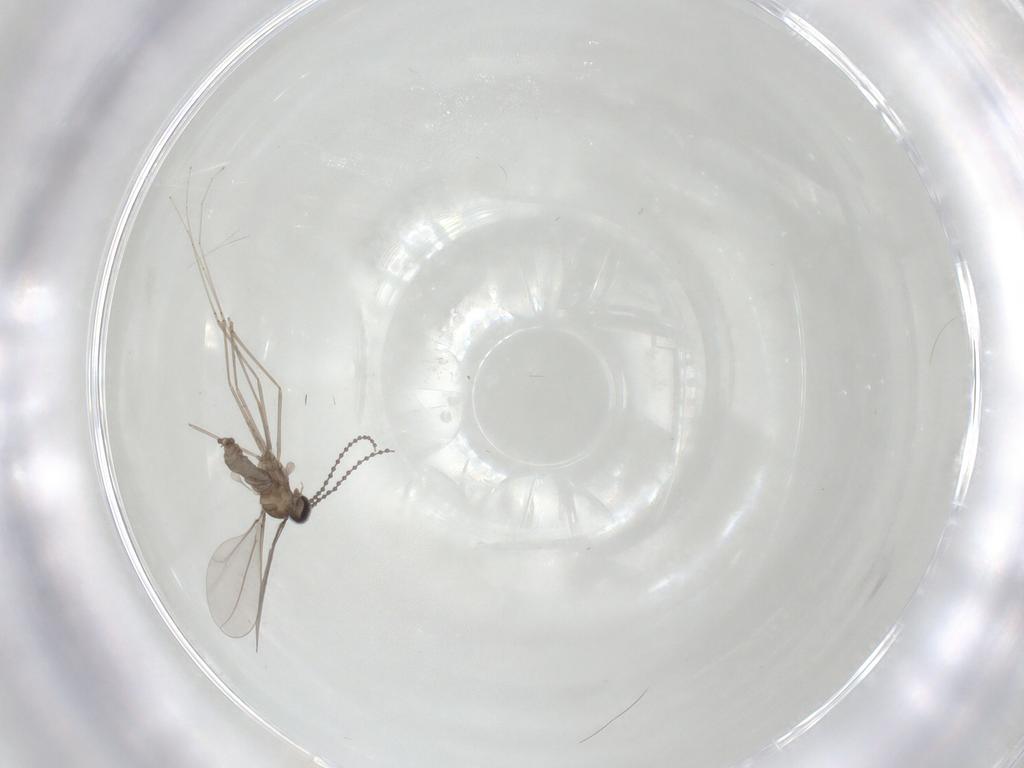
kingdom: Animalia
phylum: Arthropoda
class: Insecta
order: Diptera
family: Cecidomyiidae
